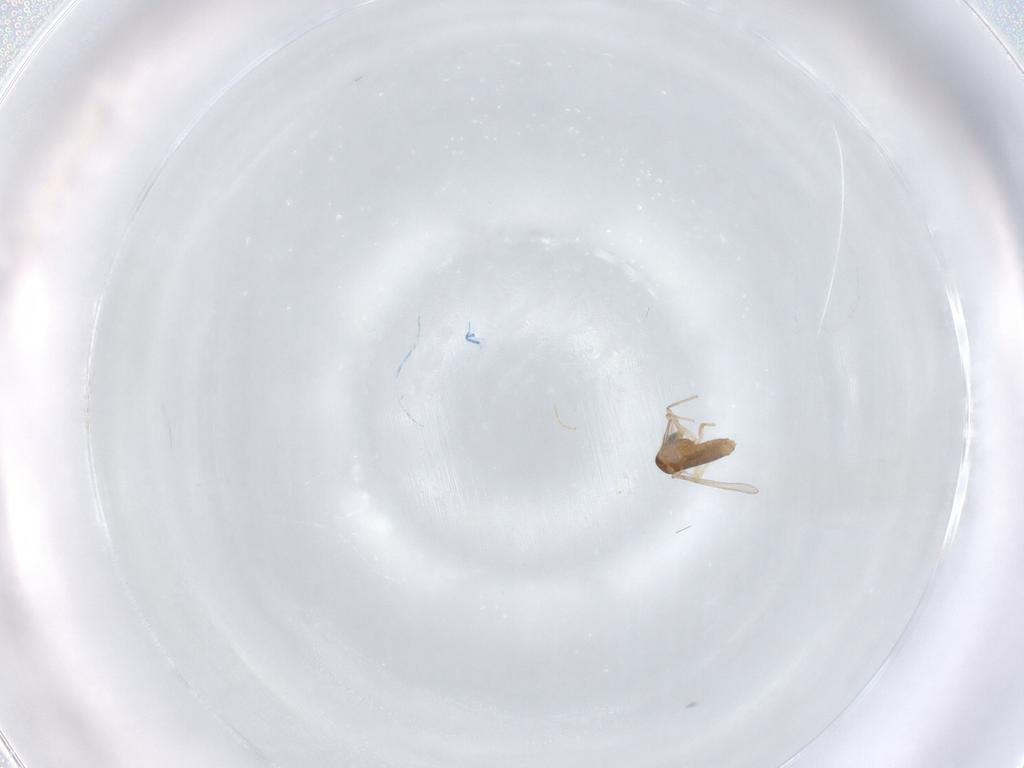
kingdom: Animalia
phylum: Arthropoda
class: Insecta
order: Diptera
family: Chironomidae
